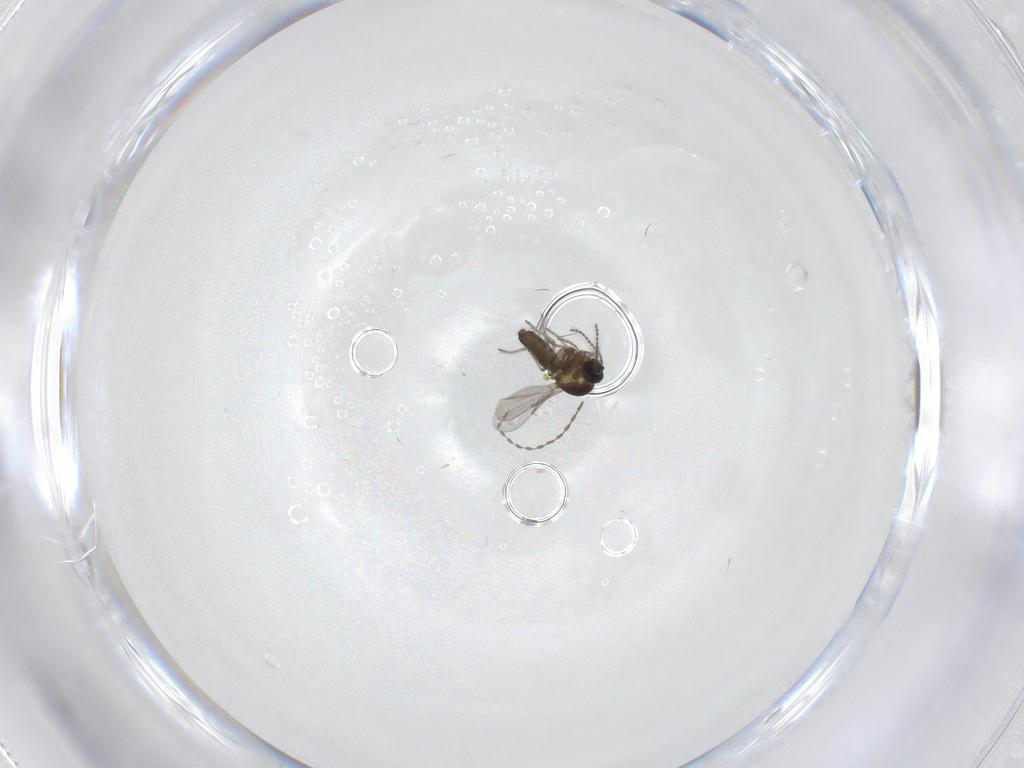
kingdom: Animalia
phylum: Arthropoda
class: Insecta
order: Diptera
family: Ceratopogonidae
